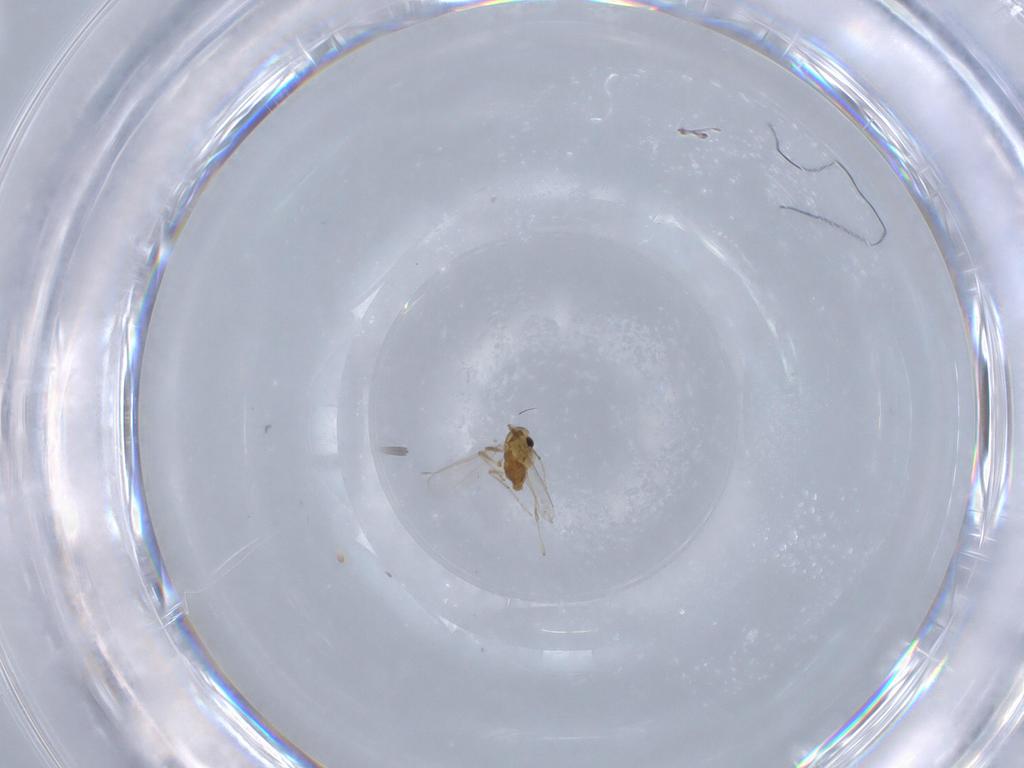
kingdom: Animalia
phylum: Arthropoda
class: Insecta
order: Diptera
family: Chironomidae
